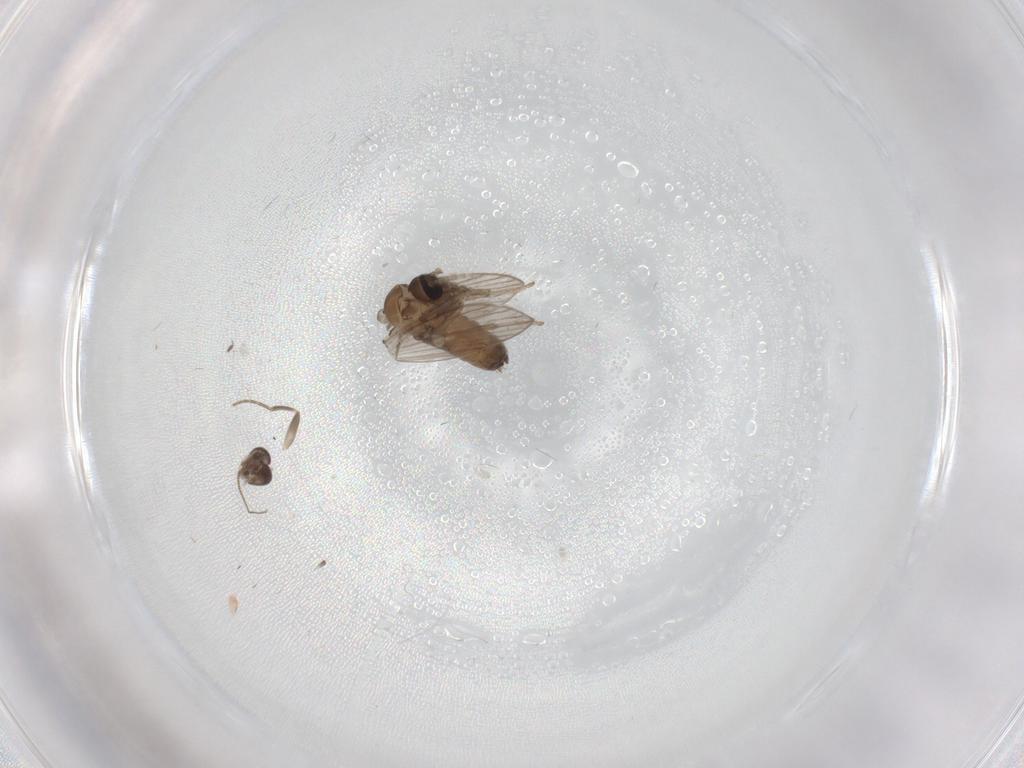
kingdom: Animalia
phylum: Arthropoda
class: Insecta
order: Diptera
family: Psychodidae
